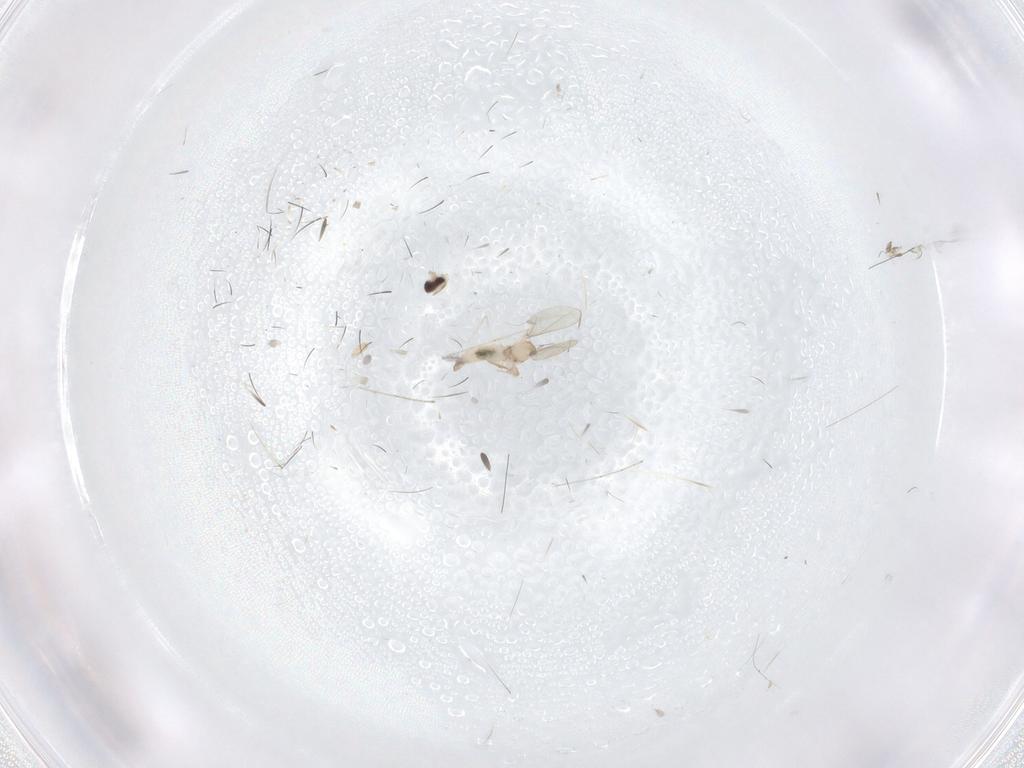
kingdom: Animalia
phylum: Arthropoda
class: Insecta
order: Diptera
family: Cecidomyiidae
